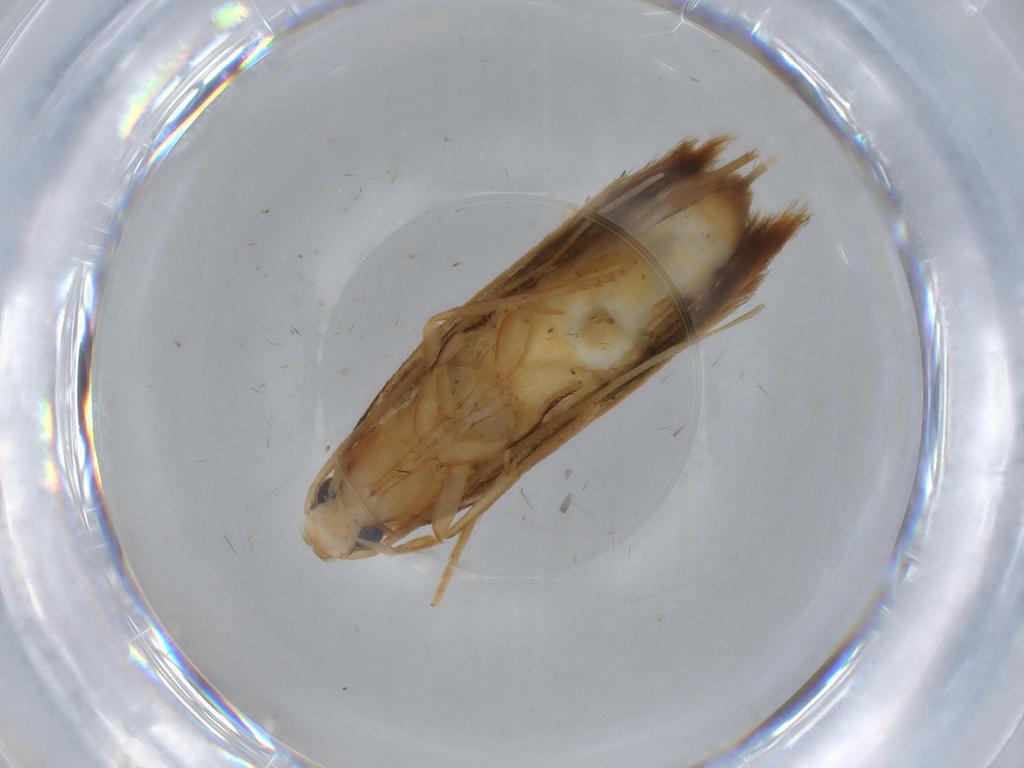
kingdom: Animalia
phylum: Arthropoda
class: Insecta
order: Lepidoptera
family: Tineidae
